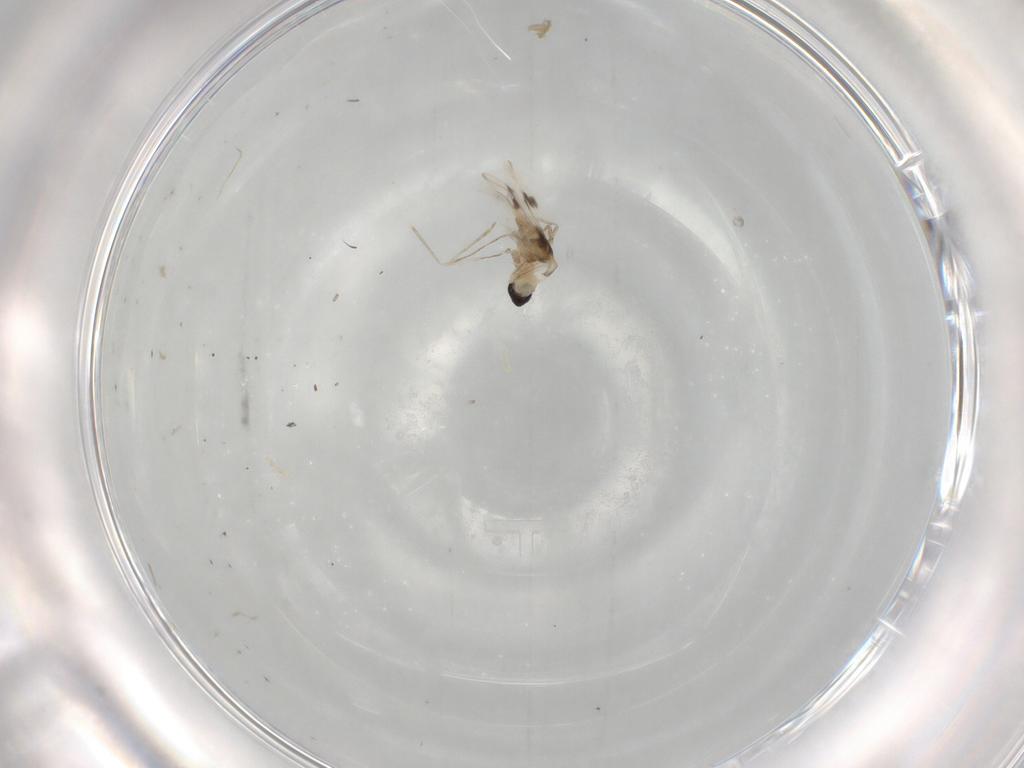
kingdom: Animalia
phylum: Arthropoda
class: Insecta
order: Diptera
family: Cecidomyiidae
